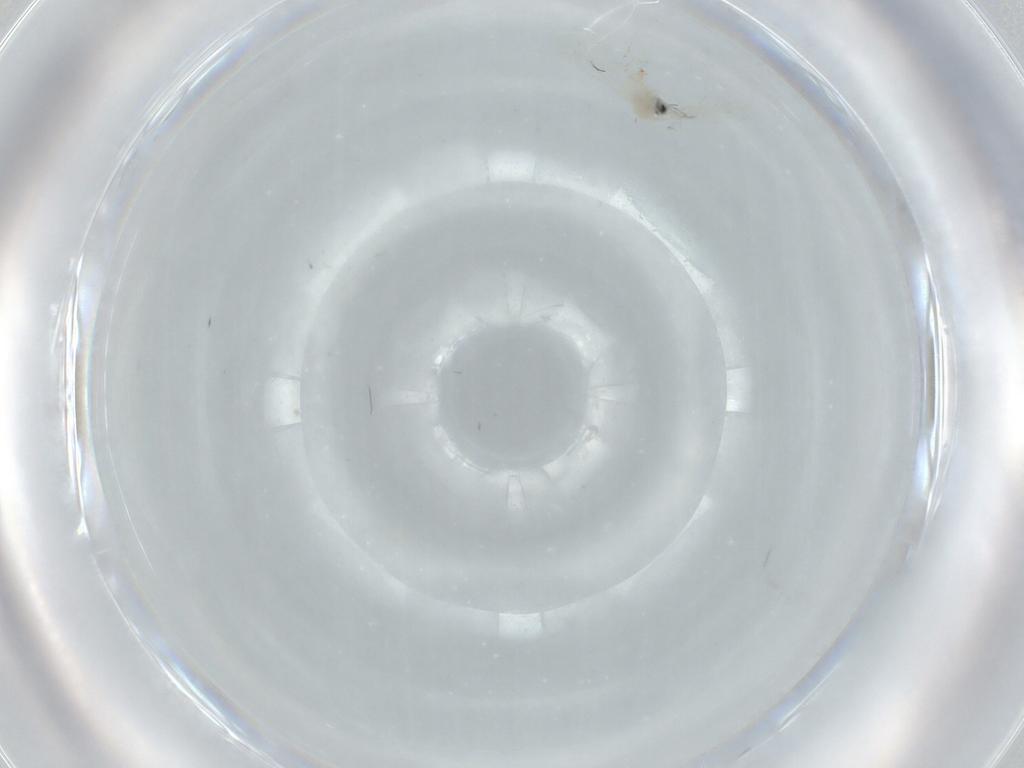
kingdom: Animalia
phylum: Arthropoda
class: Insecta
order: Diptera
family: Cecidomyiidae
